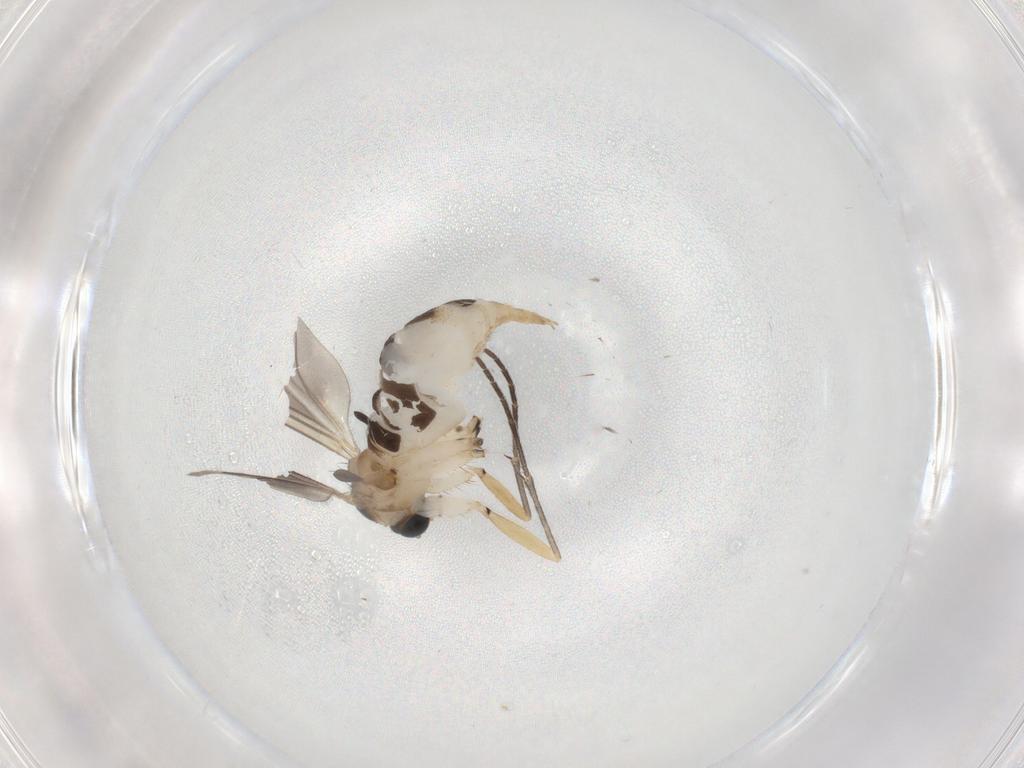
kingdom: Animalia
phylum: Arthropoda
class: Insecta
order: Diptera
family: Sciaridae
